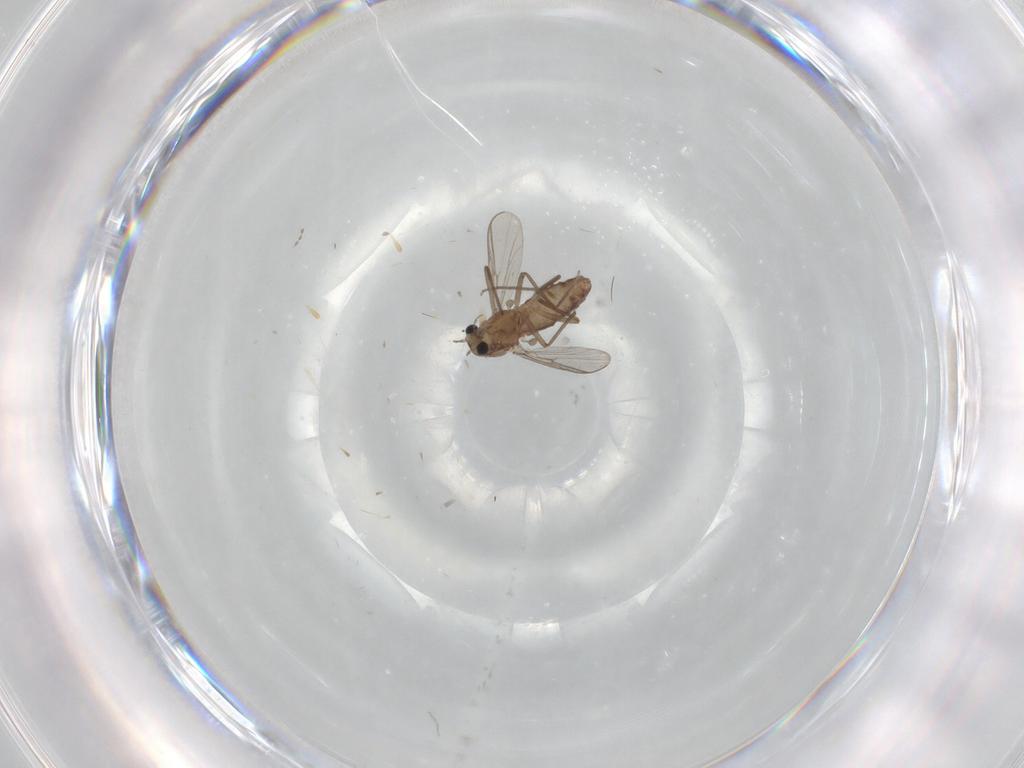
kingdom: Animalia
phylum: Arthropoda
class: Insecta
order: Diptera
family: Chironomidae
